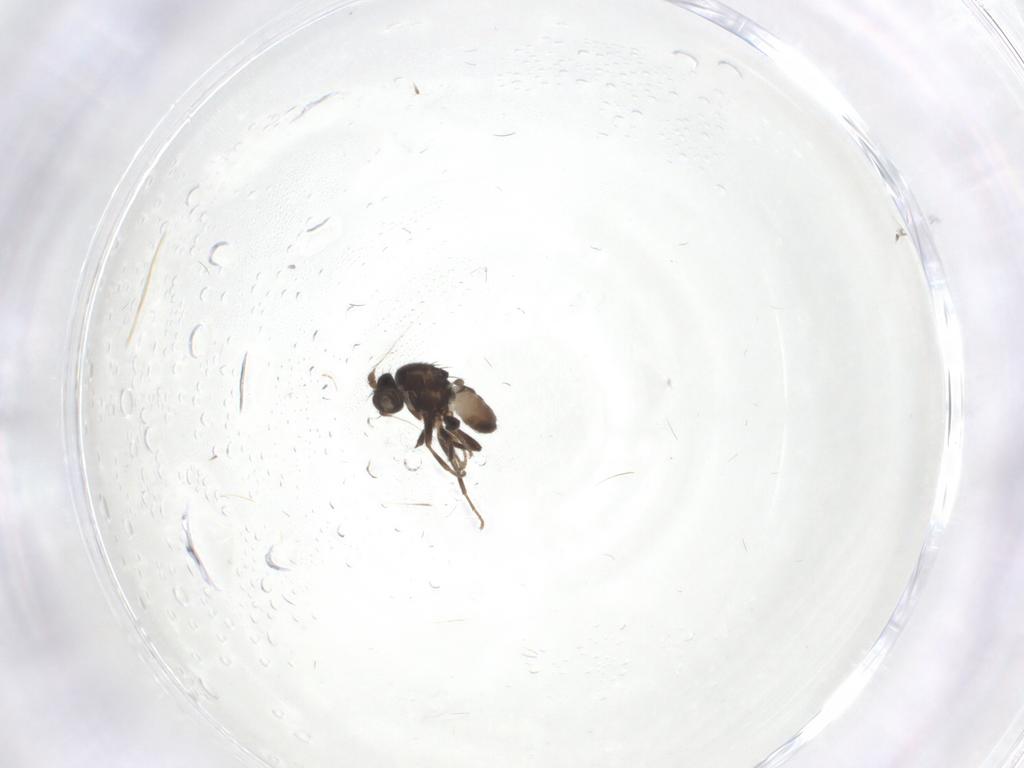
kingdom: Animalia
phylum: Arthropoda
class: Insecta
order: Diptera
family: Sphaeroceridae
